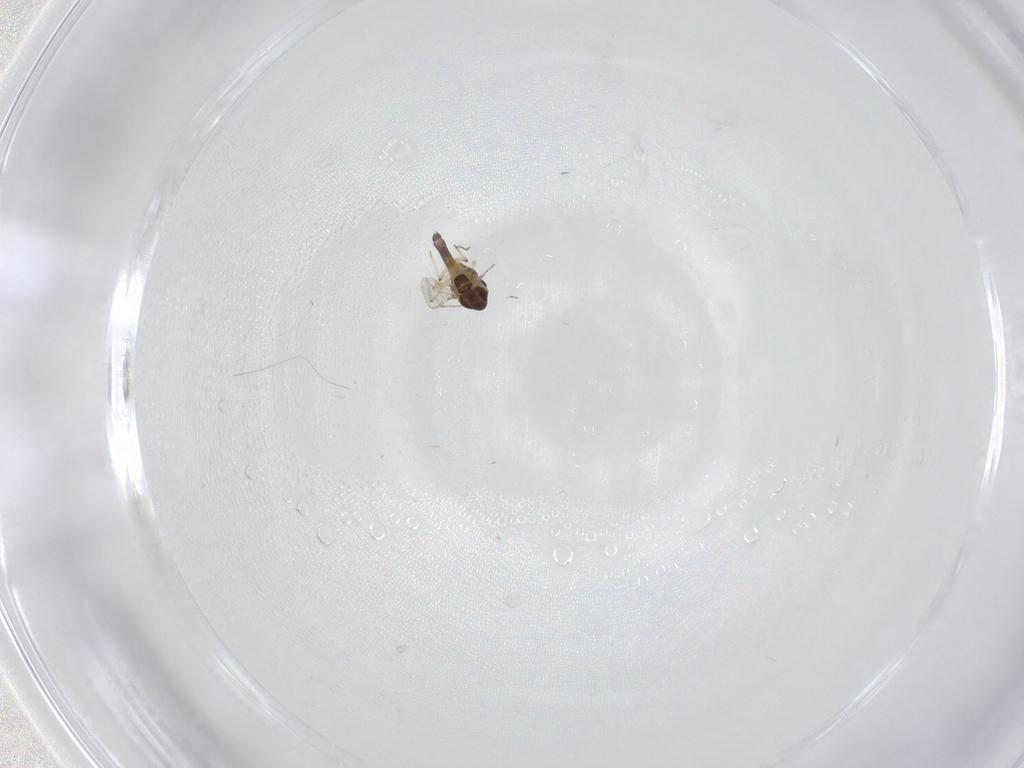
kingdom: Animalia
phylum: Arthropoda
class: Insecta
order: Diptera
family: Chironomidae
